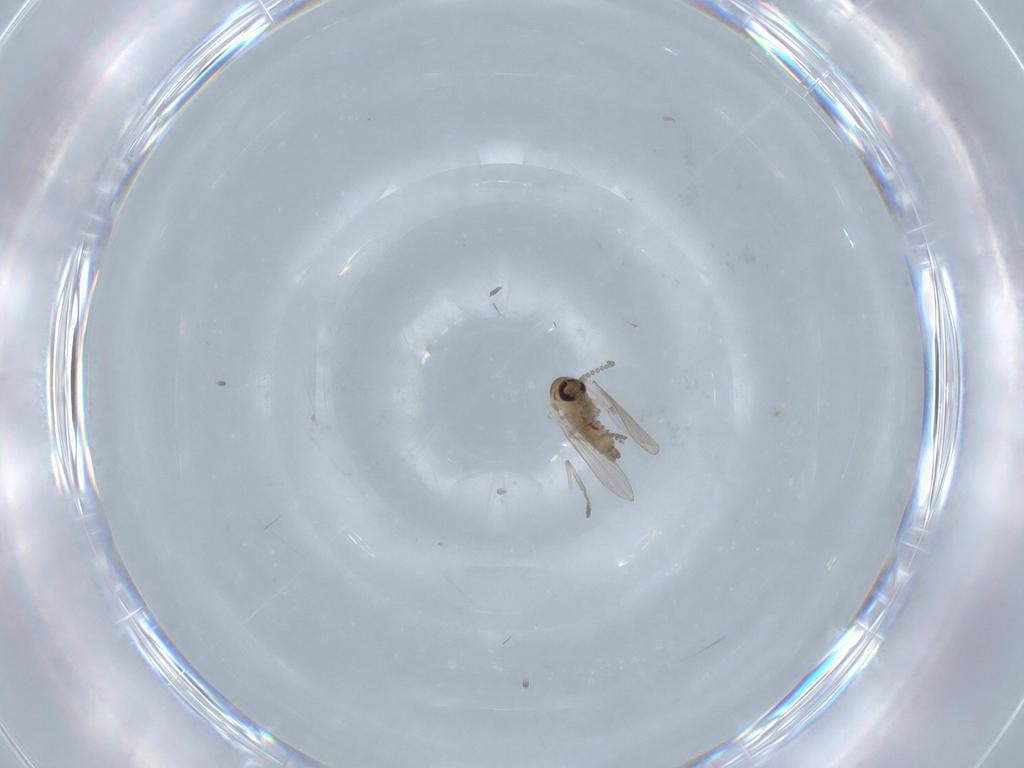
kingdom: Animalia
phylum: Arthropoda
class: Insecta
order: Diptera
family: Psychodidae
